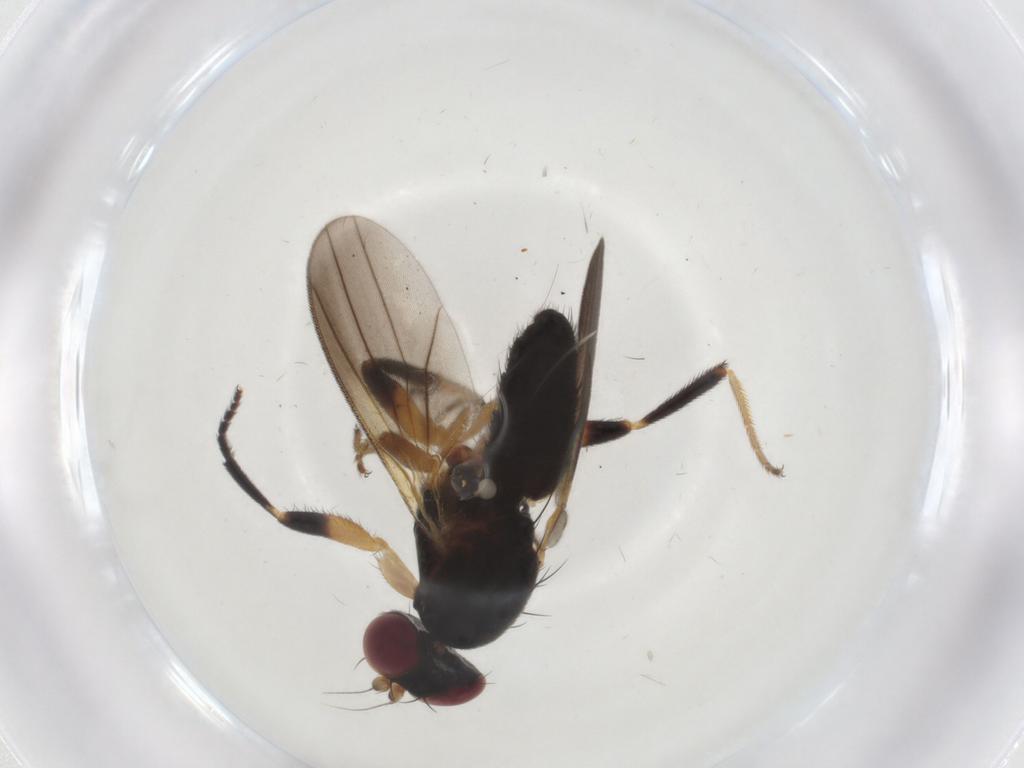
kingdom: Animalia
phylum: Arthropoda
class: Insecta
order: Diptera
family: Clusiidae
